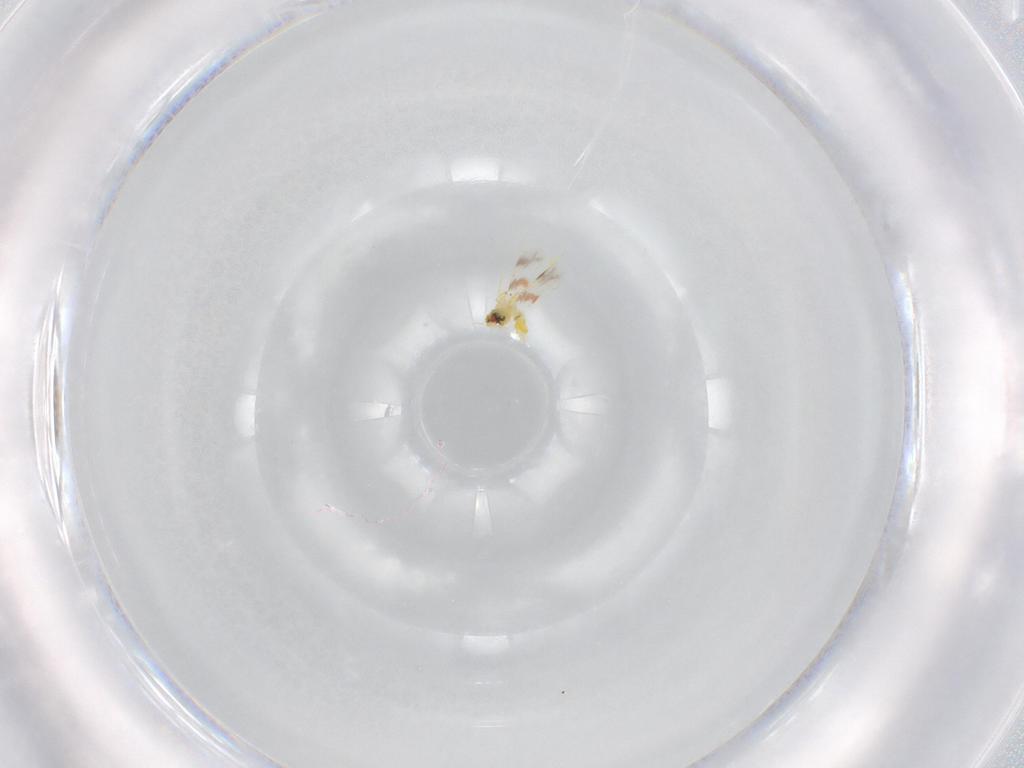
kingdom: Animalia
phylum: Arthropoda
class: Insecta
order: Hemiptera
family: Aleyrodidae
